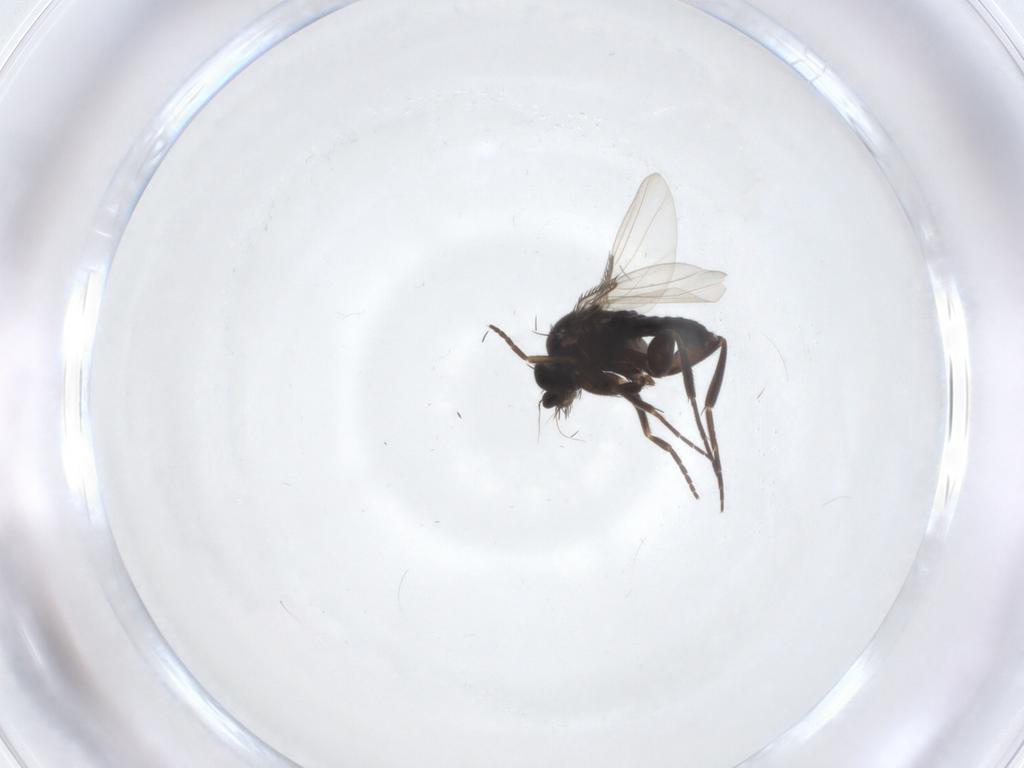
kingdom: Animalia
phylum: Arthropoda
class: Insecta
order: Diptera
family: Phoridae
